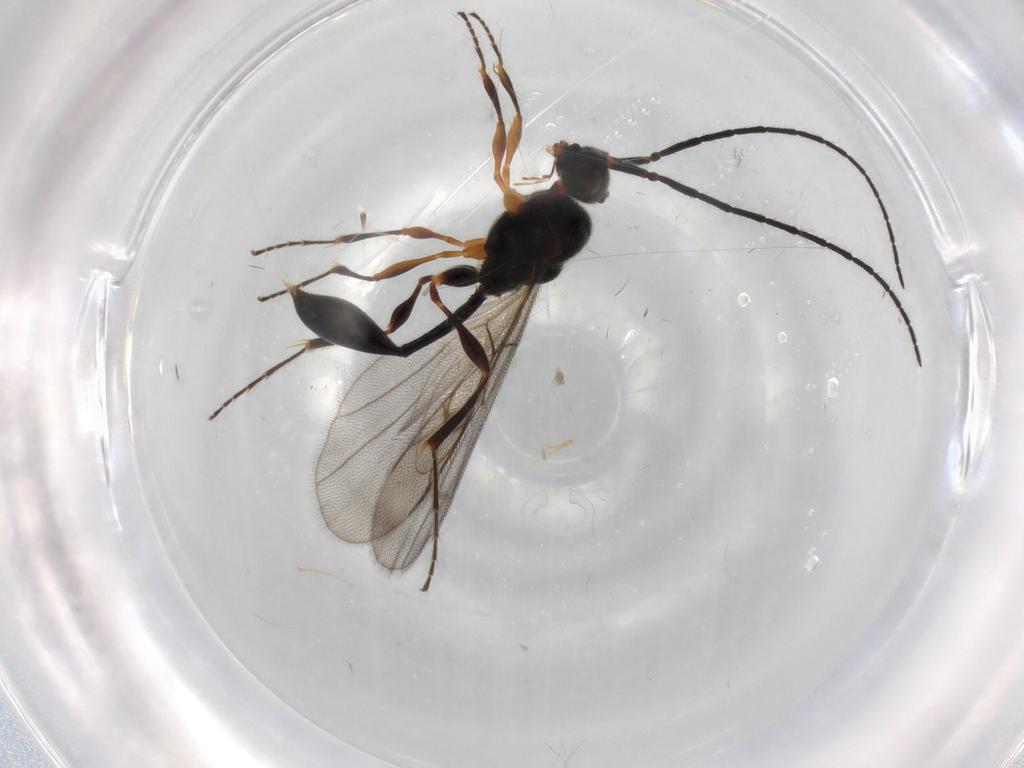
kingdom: Animalia
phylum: Arthropoda
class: Insecta
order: Hymenoptera
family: Diapriidae
